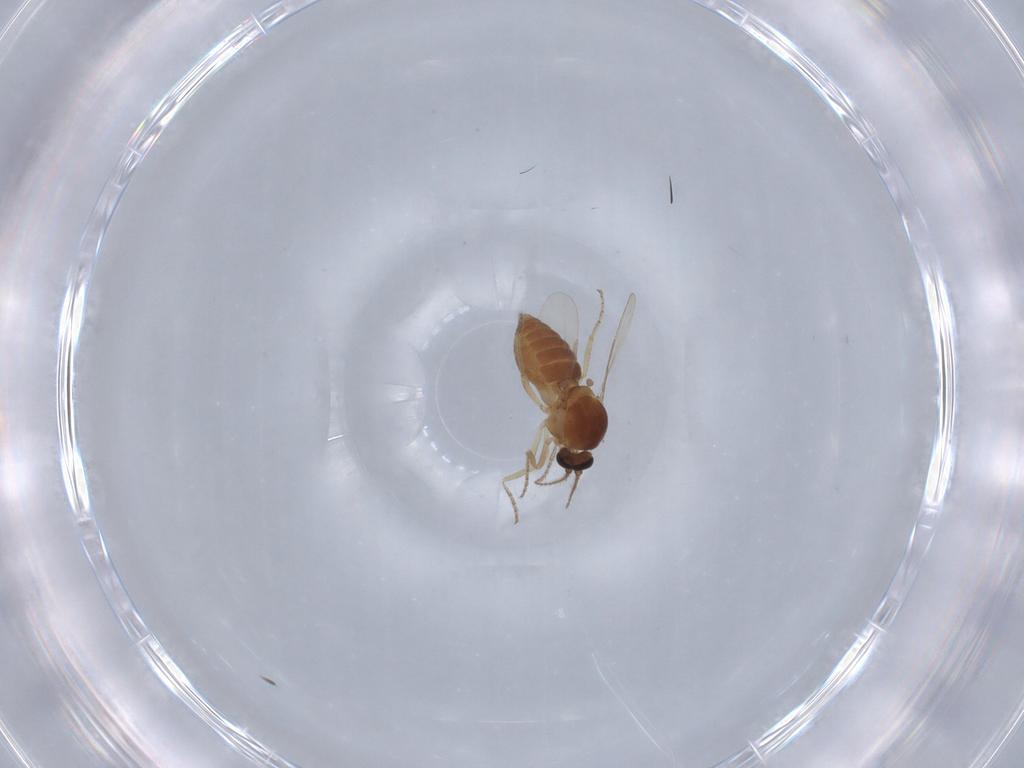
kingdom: Animalia
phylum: Arthropoda
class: Insecta
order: Diptera
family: Ceratopogonidae
